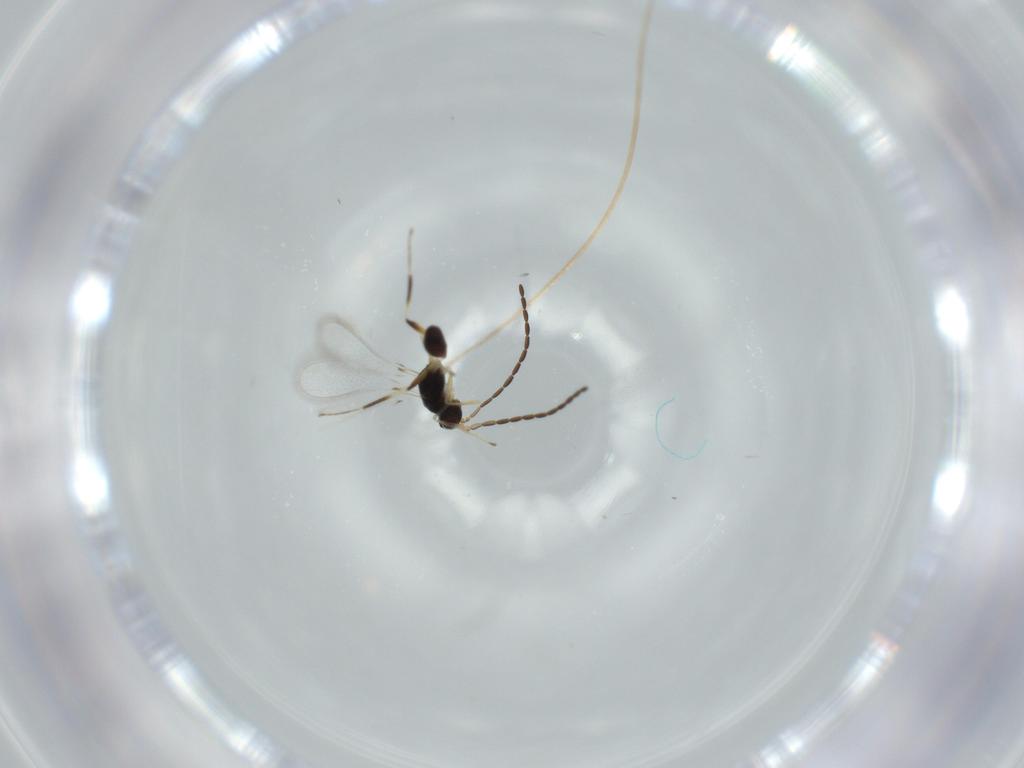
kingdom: Animalia
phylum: Arthropoda
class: Insecta
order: Hymenoptera
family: Mymaridae
